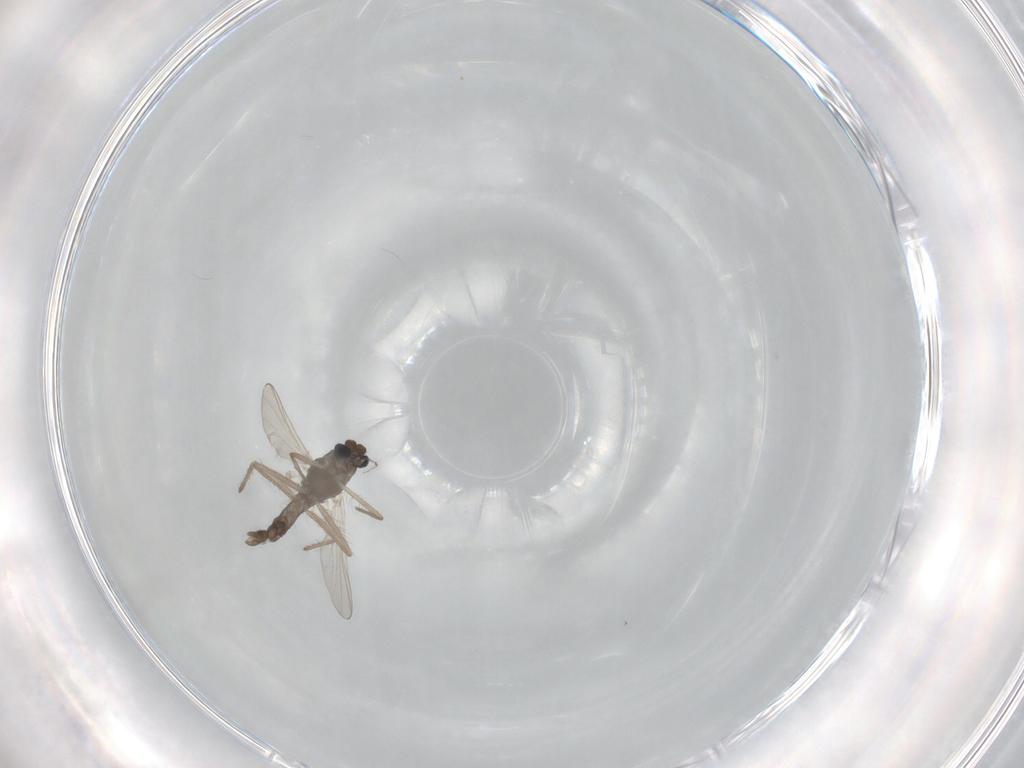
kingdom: Animalia
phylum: Arthropoda
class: Insecta
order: Diptera
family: Chironomidae
